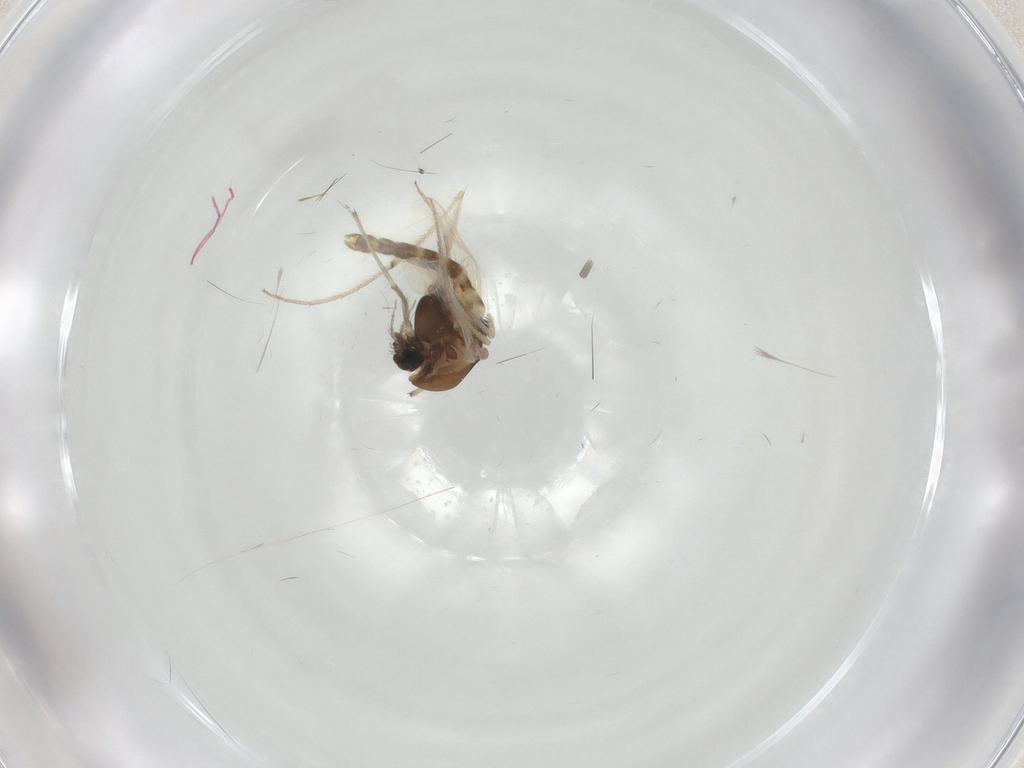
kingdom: Animalia
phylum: Arthropoda
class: Insecta
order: Diptera
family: Chironomidae
